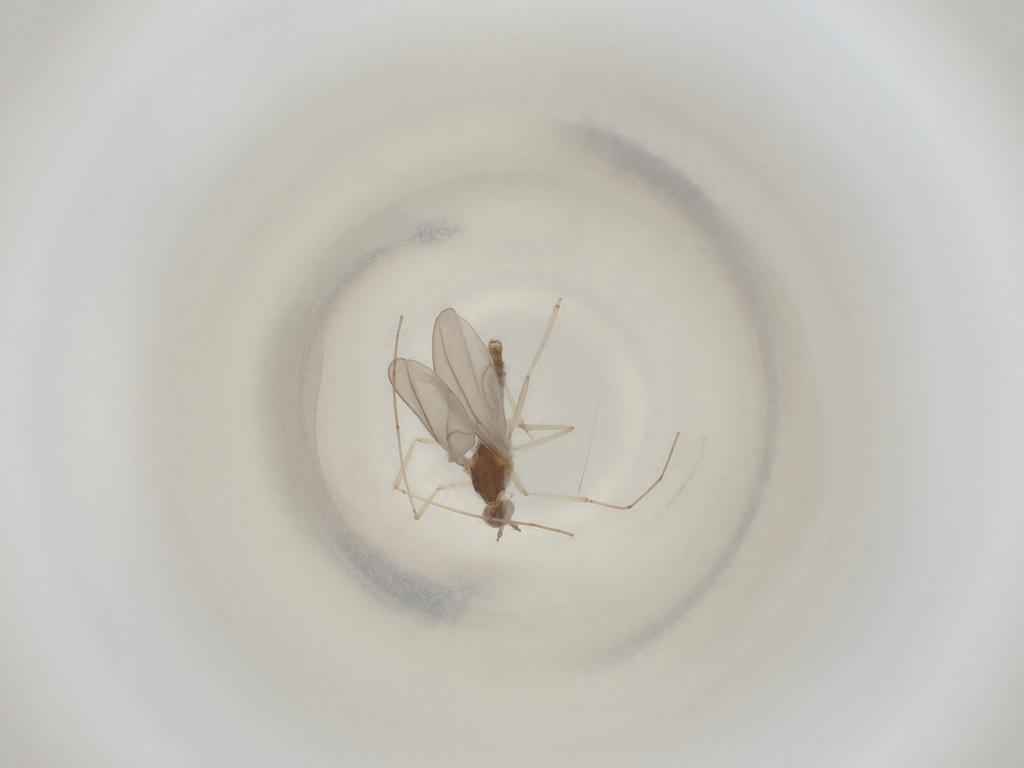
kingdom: Animalia
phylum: Arthropoda
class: Insecta
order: Diptera
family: Cecidomyiidae
